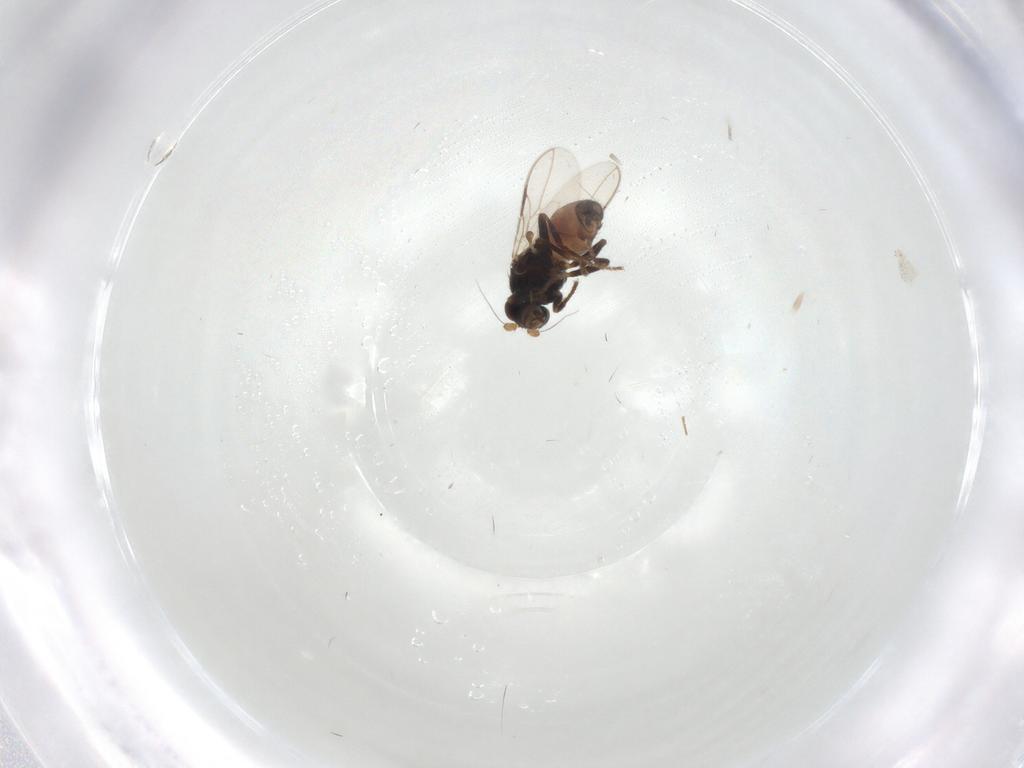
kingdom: Animalia
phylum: Arthropoda
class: Insecta
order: Diptera
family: Sphaeroceridae
